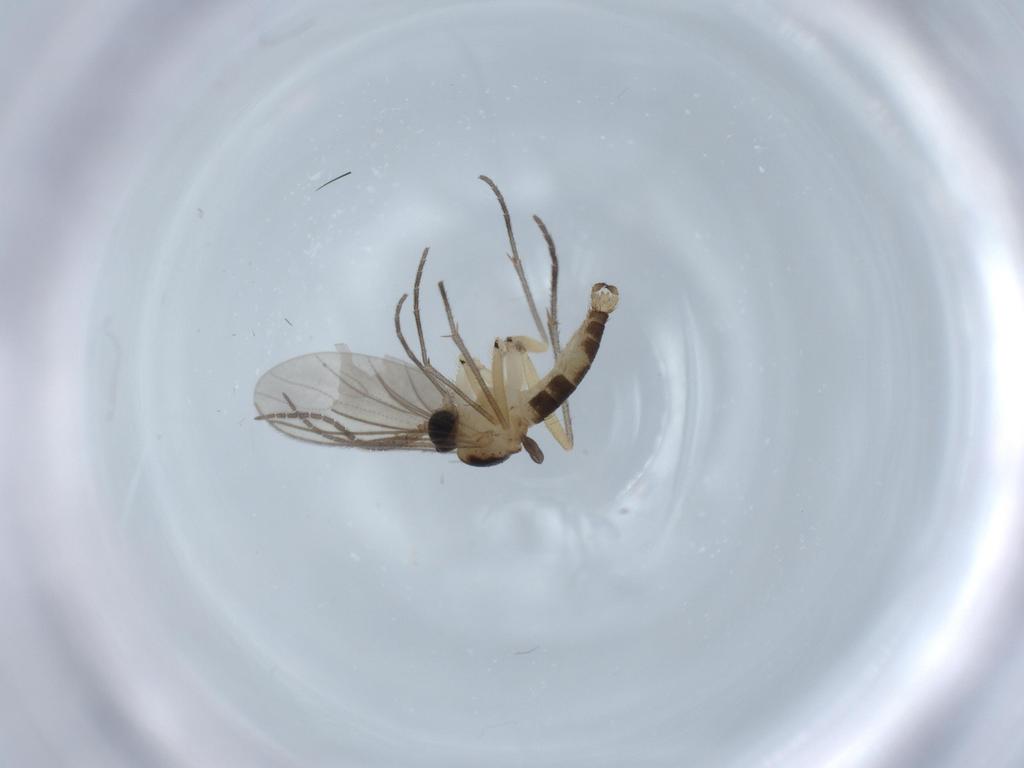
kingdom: Animalia
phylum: Arthropoda
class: Insecta
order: Diptera
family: Sciaridae
